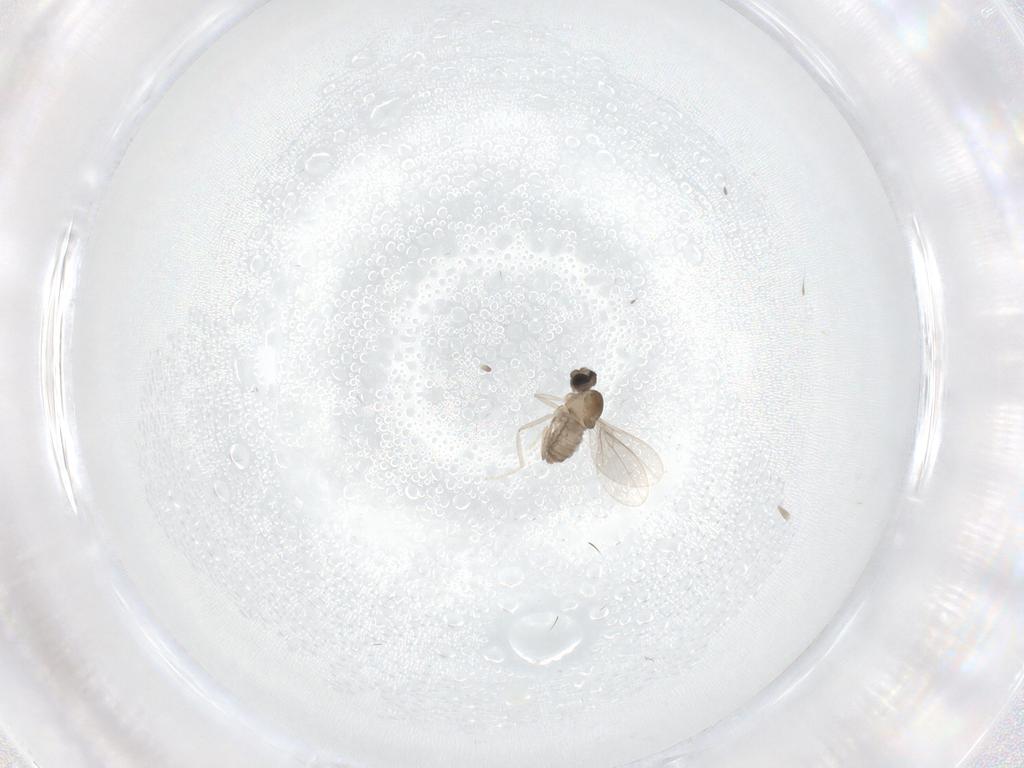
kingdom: Animalia
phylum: Arthropoda
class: Insecta
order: Diptera
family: Cecidomyiidae
